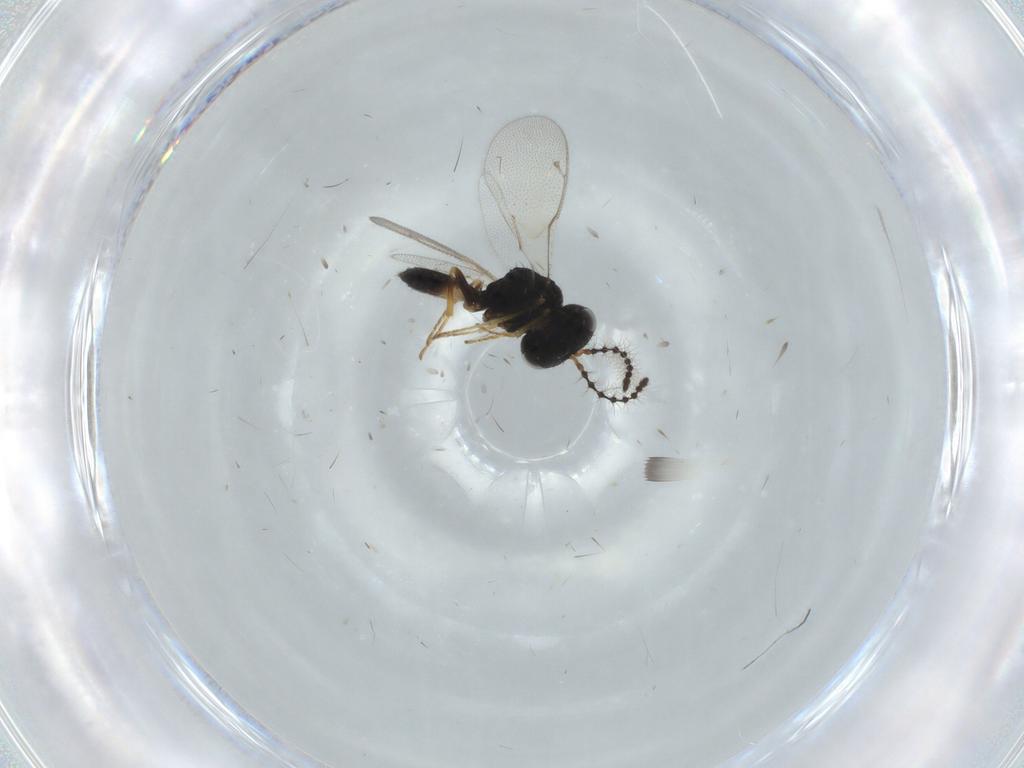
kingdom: Animalia
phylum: Arthropoda
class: Insecta
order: Hymenoptera
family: Pteromalidae
